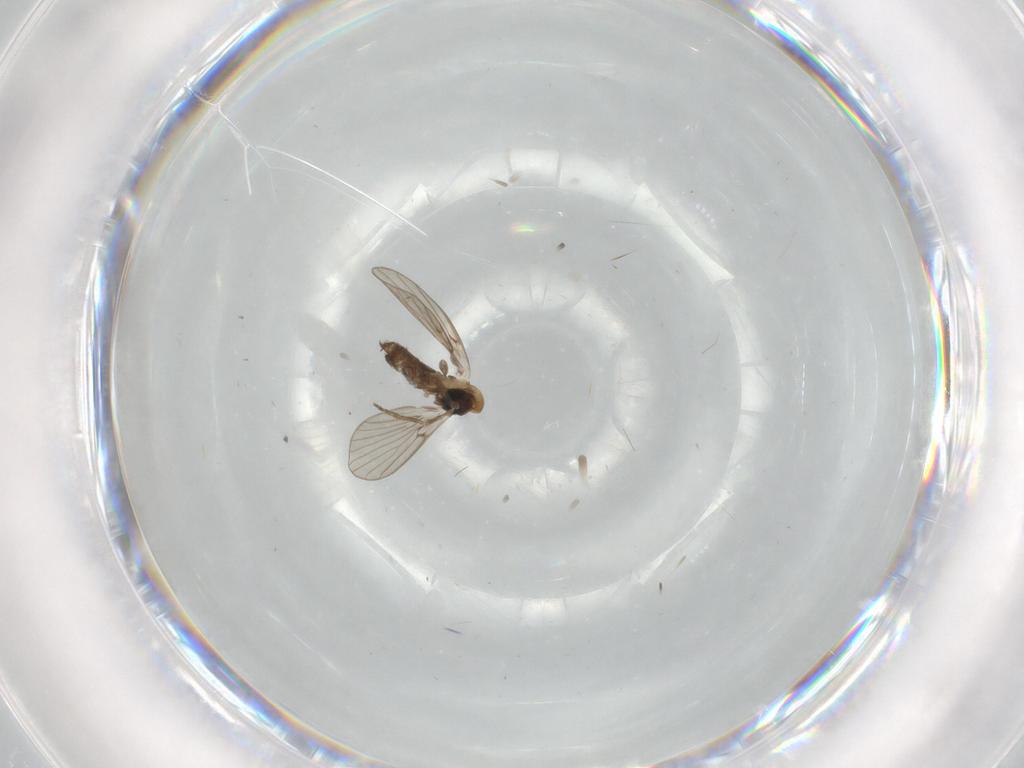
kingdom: Animalia
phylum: Arthropoda
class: Insecta
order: Diptera
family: Psychodidae
